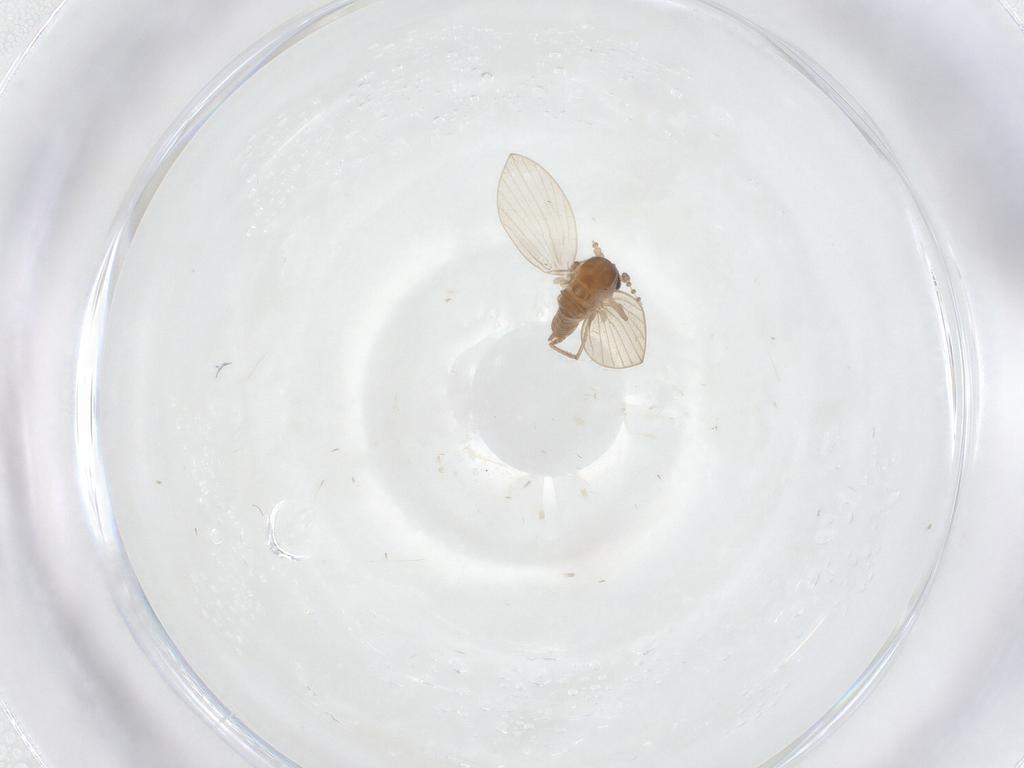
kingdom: Animalia
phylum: Arthropoda
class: Insecta
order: Diptera
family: Psychodidae
